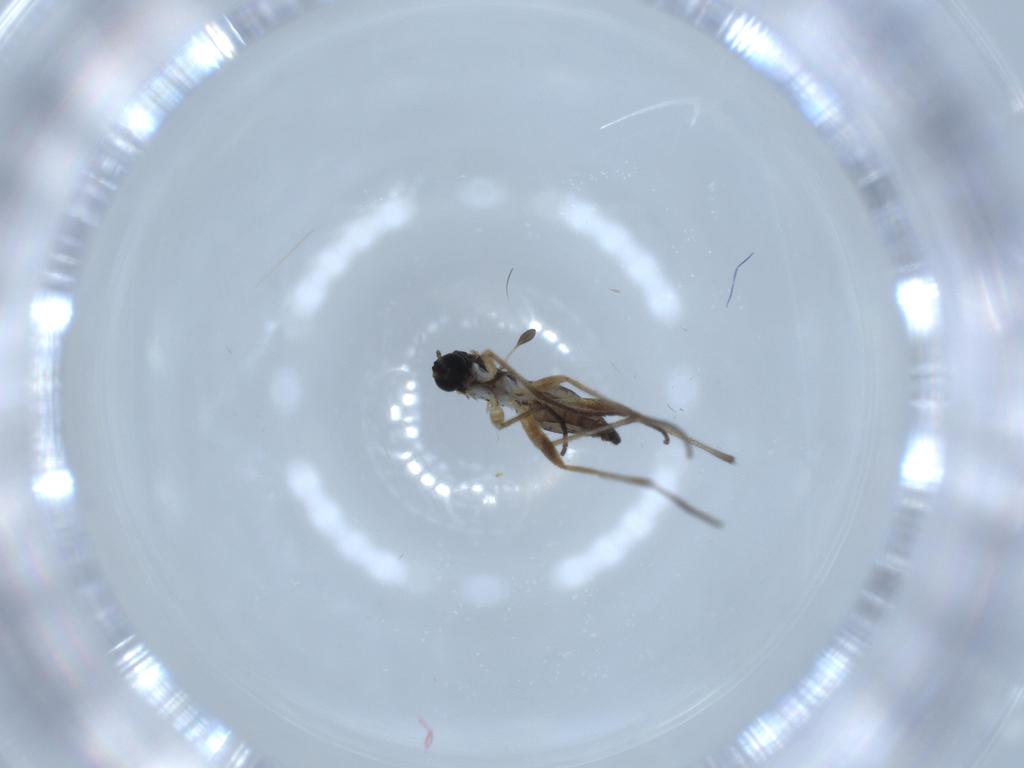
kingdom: Animalia
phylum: Arthropoda
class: Insecta
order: Diptera
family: Sciaridae
